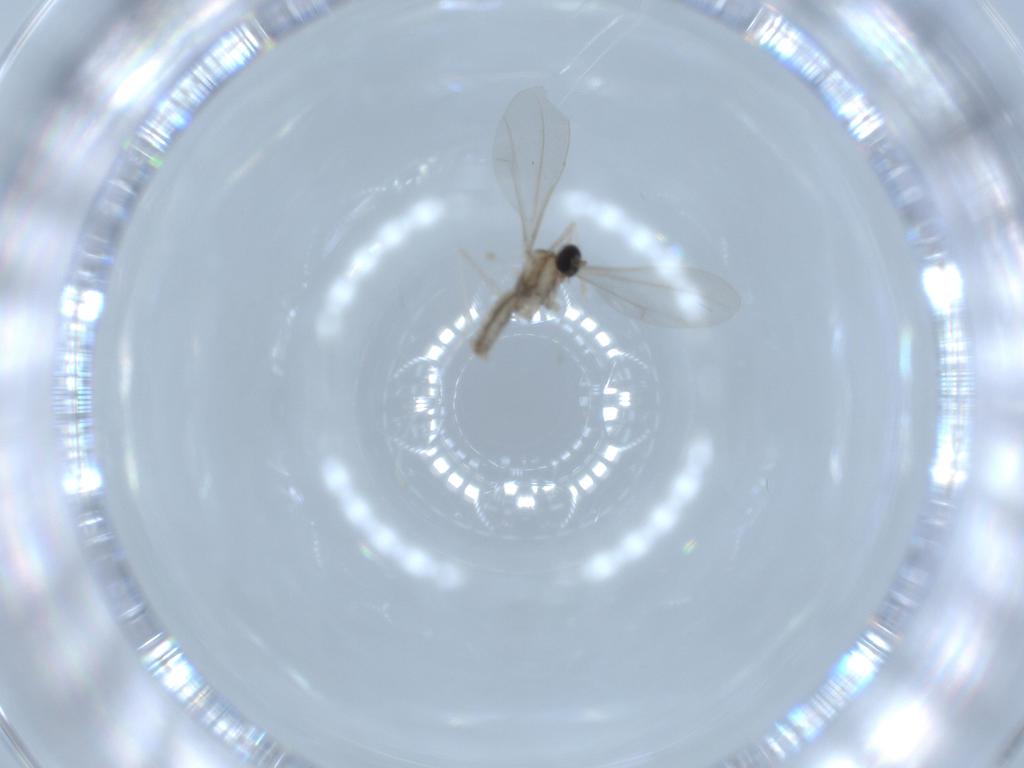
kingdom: Animalia
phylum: Arthropoda
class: Insecta
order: Diptera
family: Cecidomyiidae
